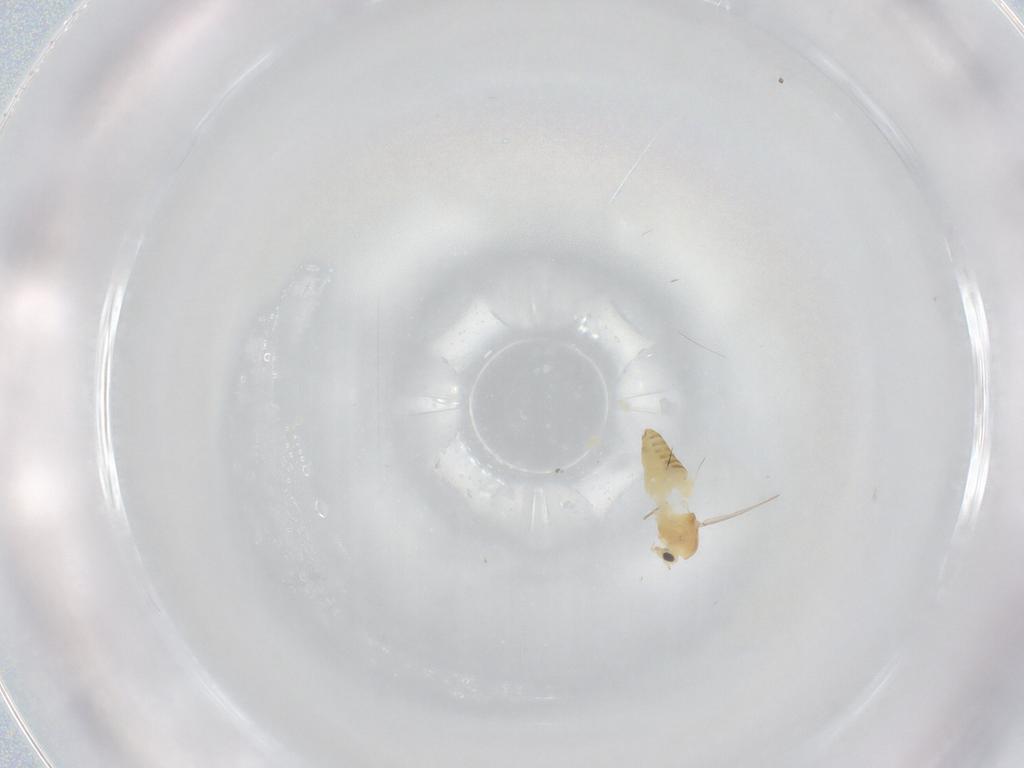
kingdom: Animalia
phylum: Arthropoda
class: Insecta
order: Diptera
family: Chironomidae
